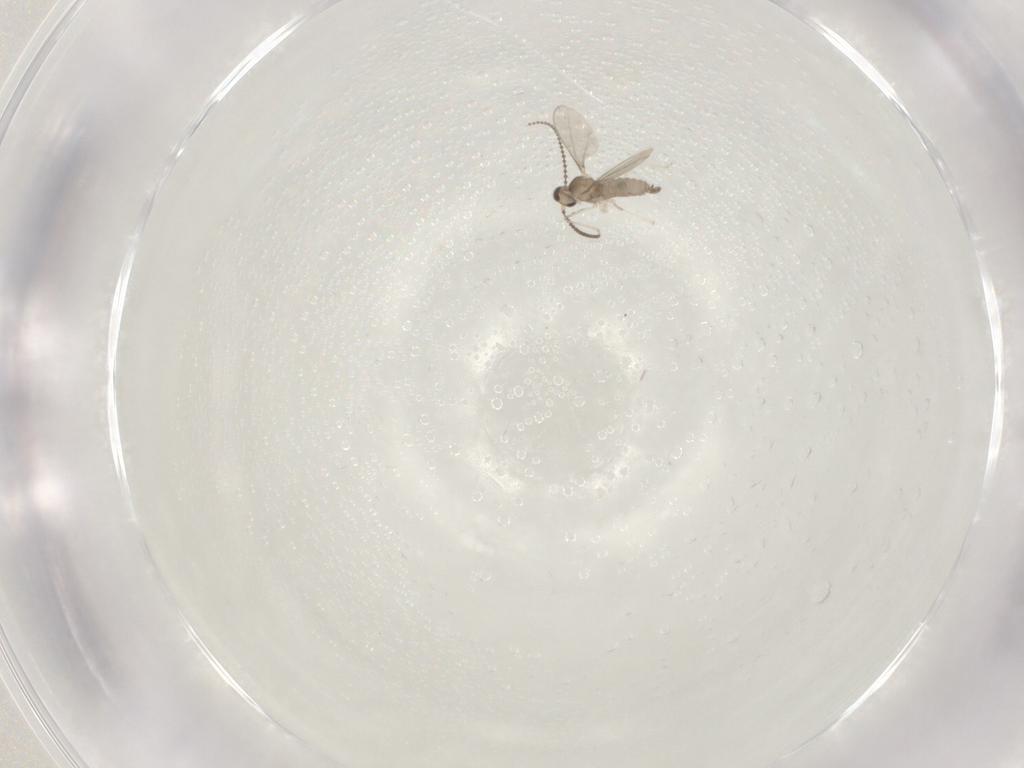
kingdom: Animalia
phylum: Arthropoda
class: Insecta
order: Diptera
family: Cecidomyiidae
